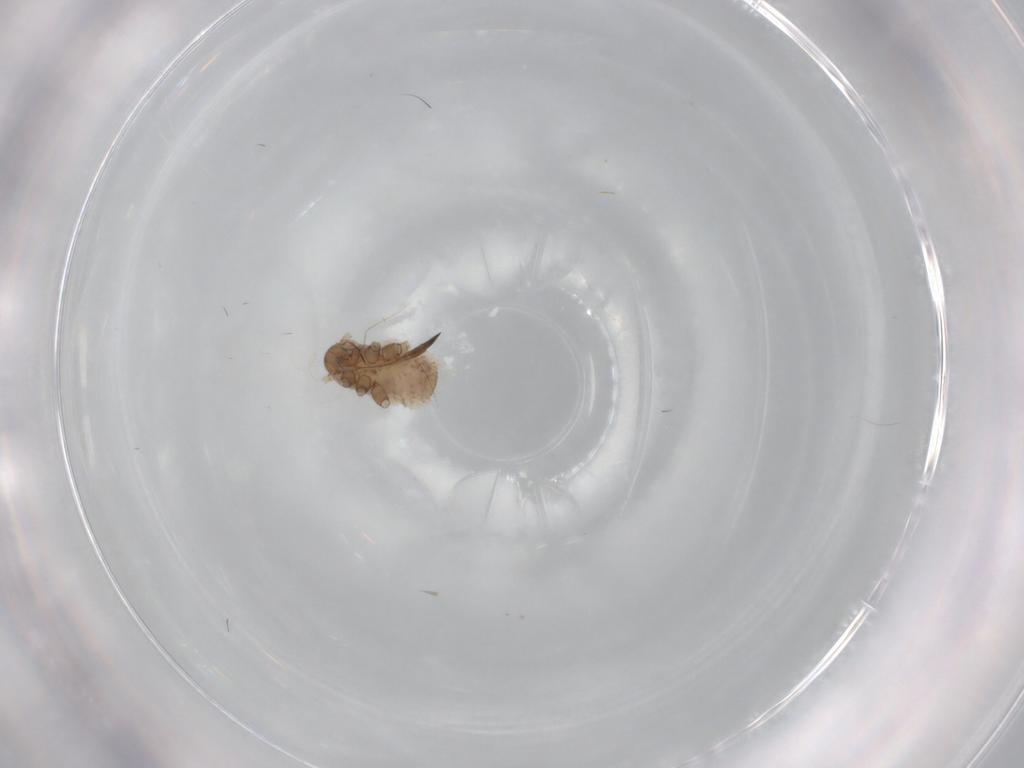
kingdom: Animalia
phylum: Arthropoda
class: Insecta
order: Hemiptera
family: Aphididae
